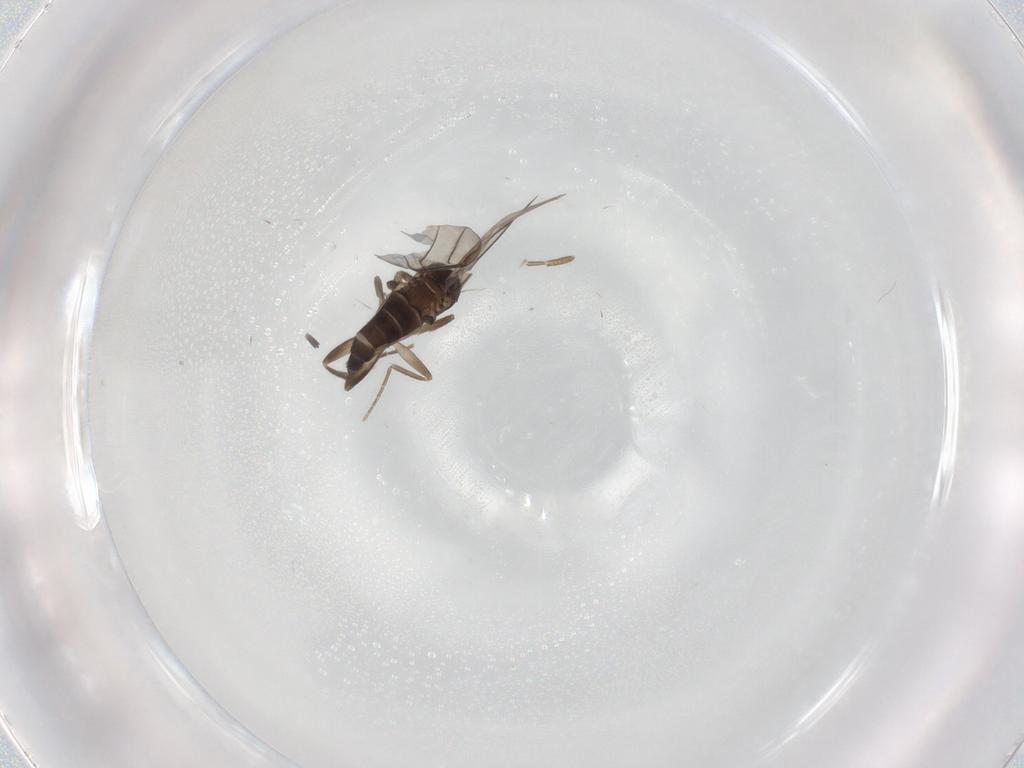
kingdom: Animalia
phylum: Arthropoda
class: Insecta
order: Diptera
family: Phoridae
